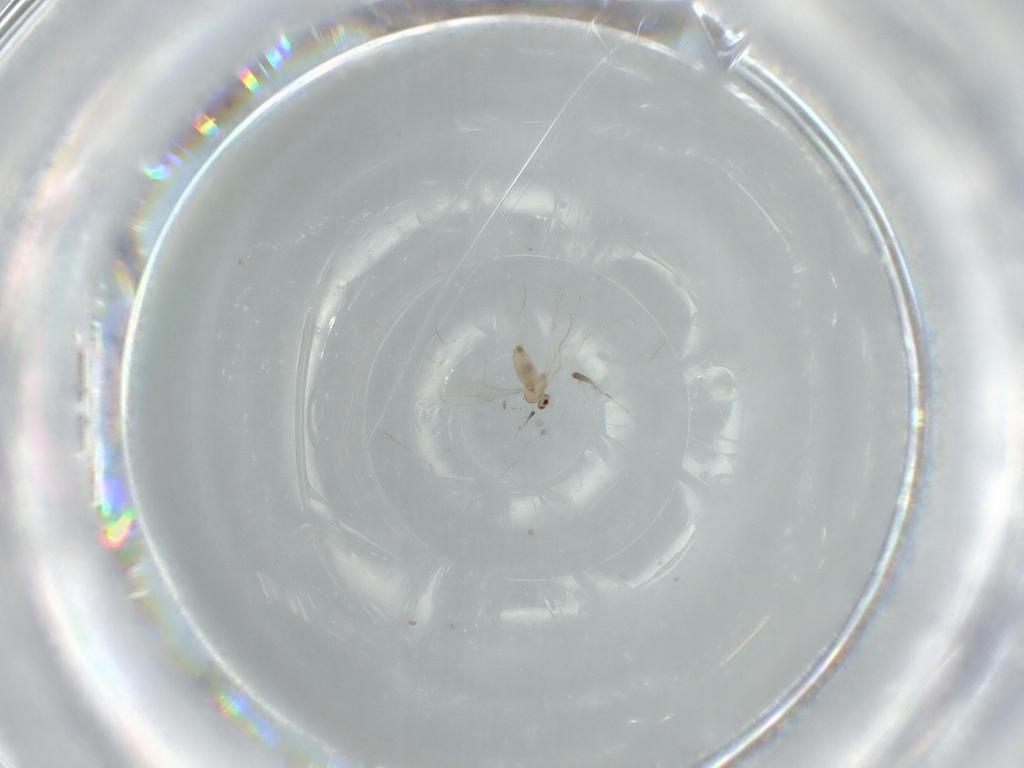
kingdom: Animalia
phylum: Arthropoda
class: Insecta
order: Diptera
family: Cecidomyiidae
